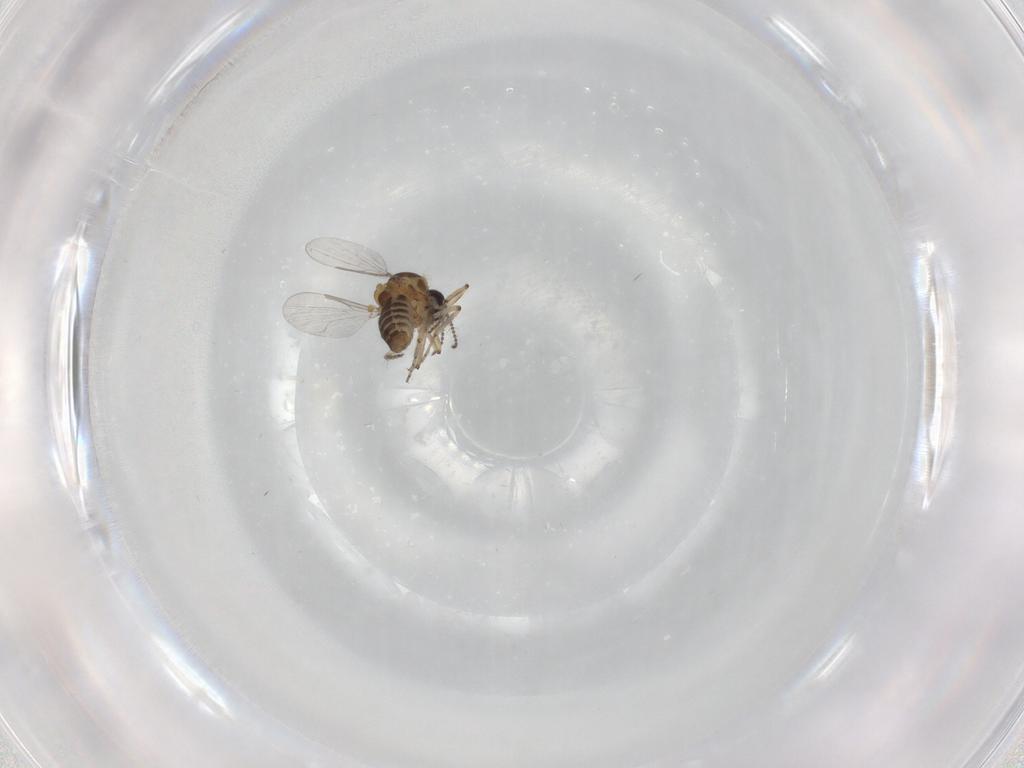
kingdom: Animalia
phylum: Arthropoda
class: Insecta
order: Diptera
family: Ceratopogonidae
